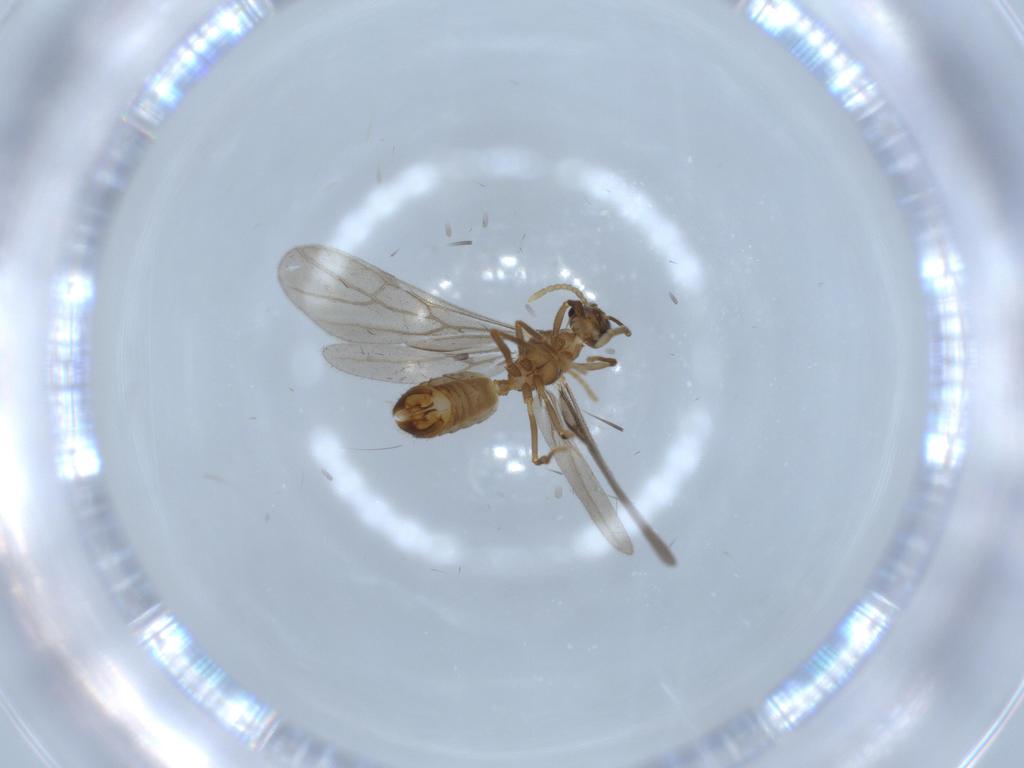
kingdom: Animalia
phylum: Arthropoda
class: Insecta
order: Hymenoptera
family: Formicidae
